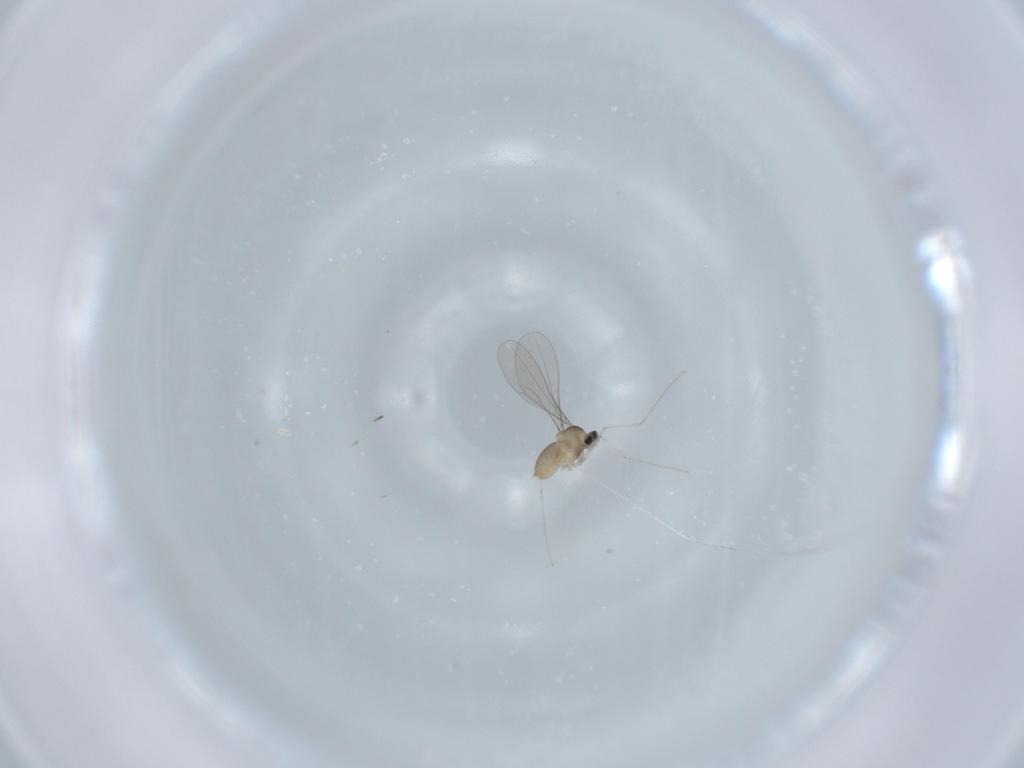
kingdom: Animalia
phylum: Arthropoda
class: Insecta
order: Diptera
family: Cecidomyiidae
